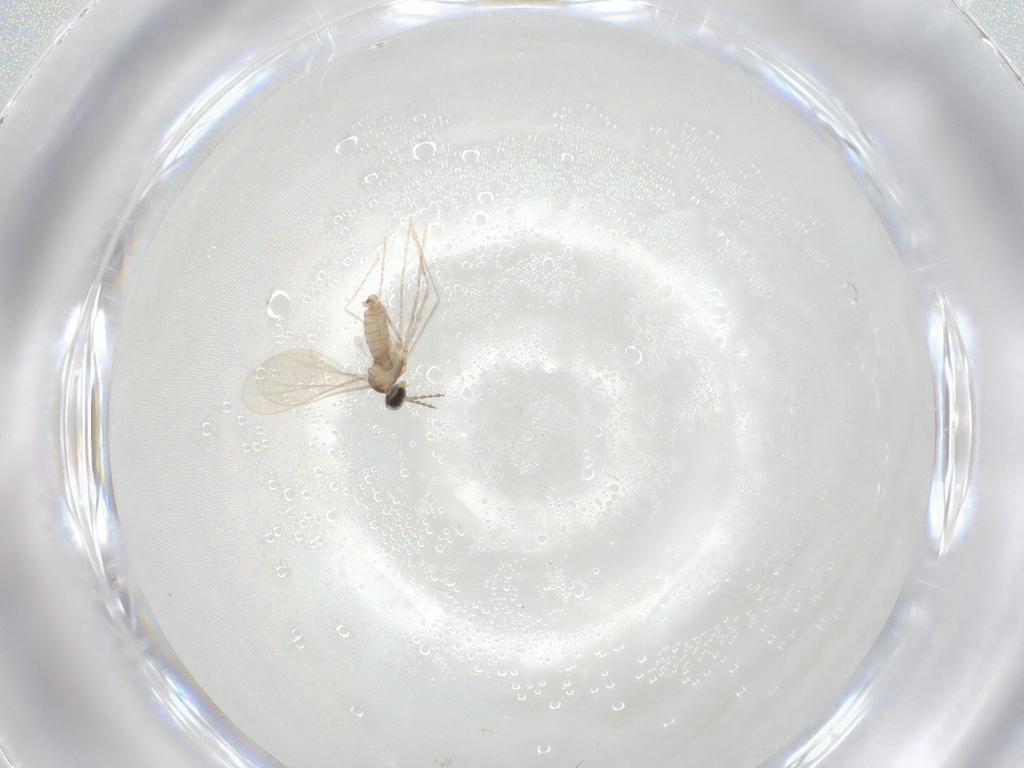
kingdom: Animalia
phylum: Arthropoda
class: Insecta
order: Diptera
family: Cecidomyiidae
